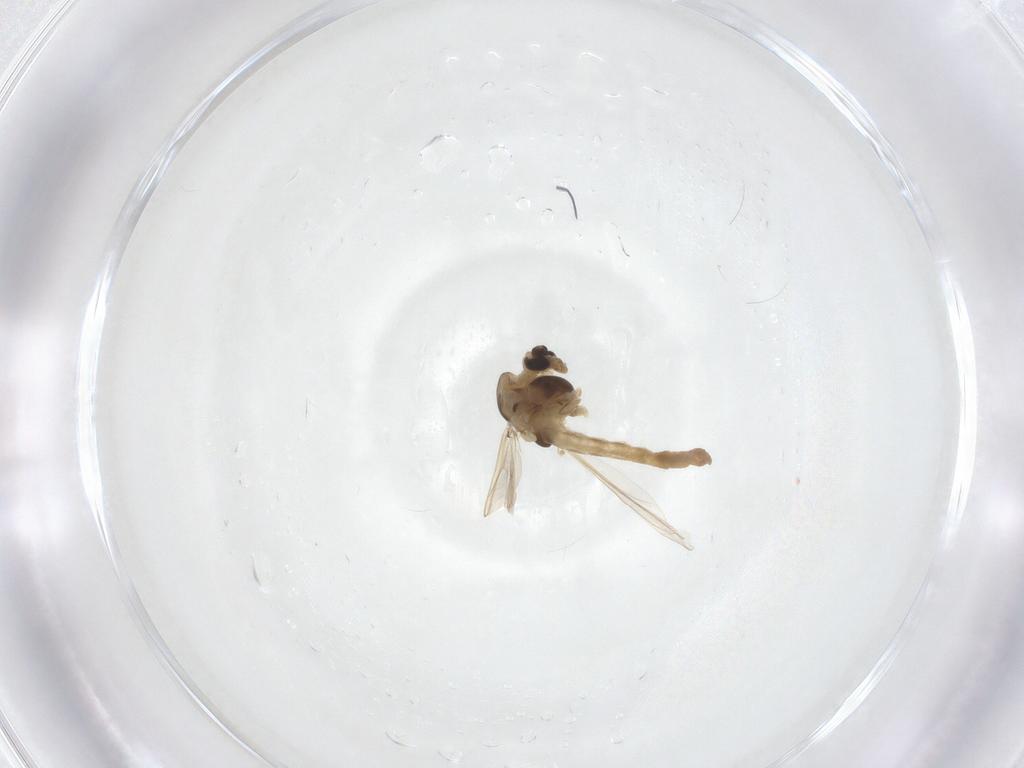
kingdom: Animalia
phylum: Arthropoda
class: Insecta
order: Diptera
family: Chironomidae
